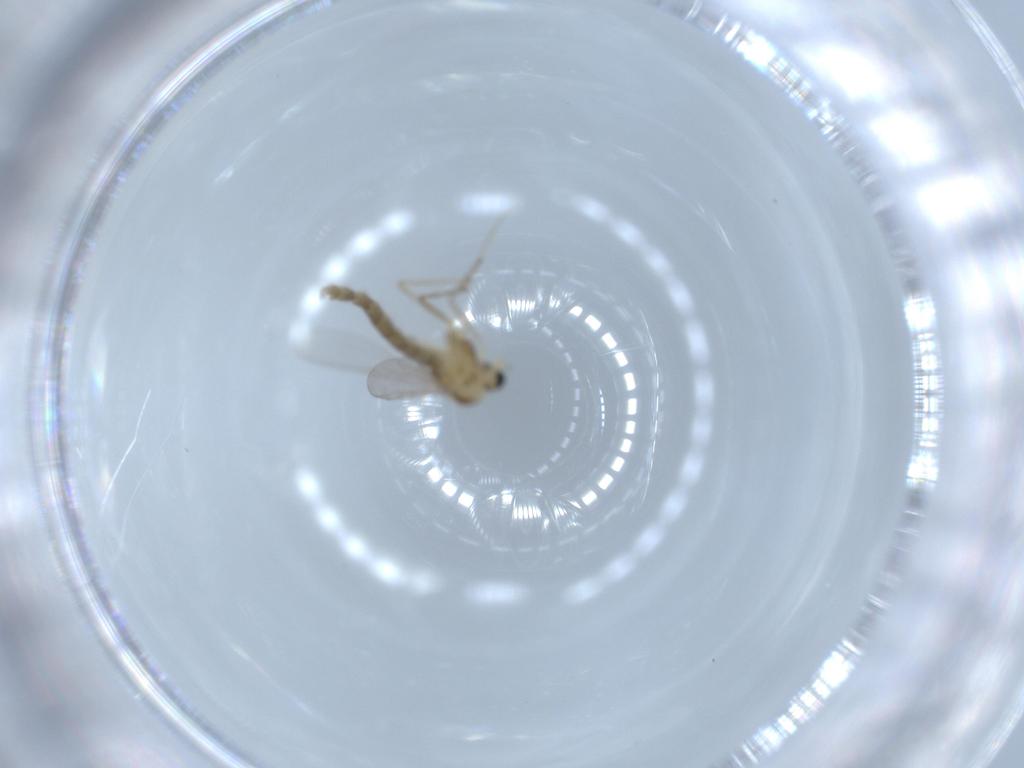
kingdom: Animalia
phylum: Arthropoda
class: Insecta
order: Diptera
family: Chironomidae
